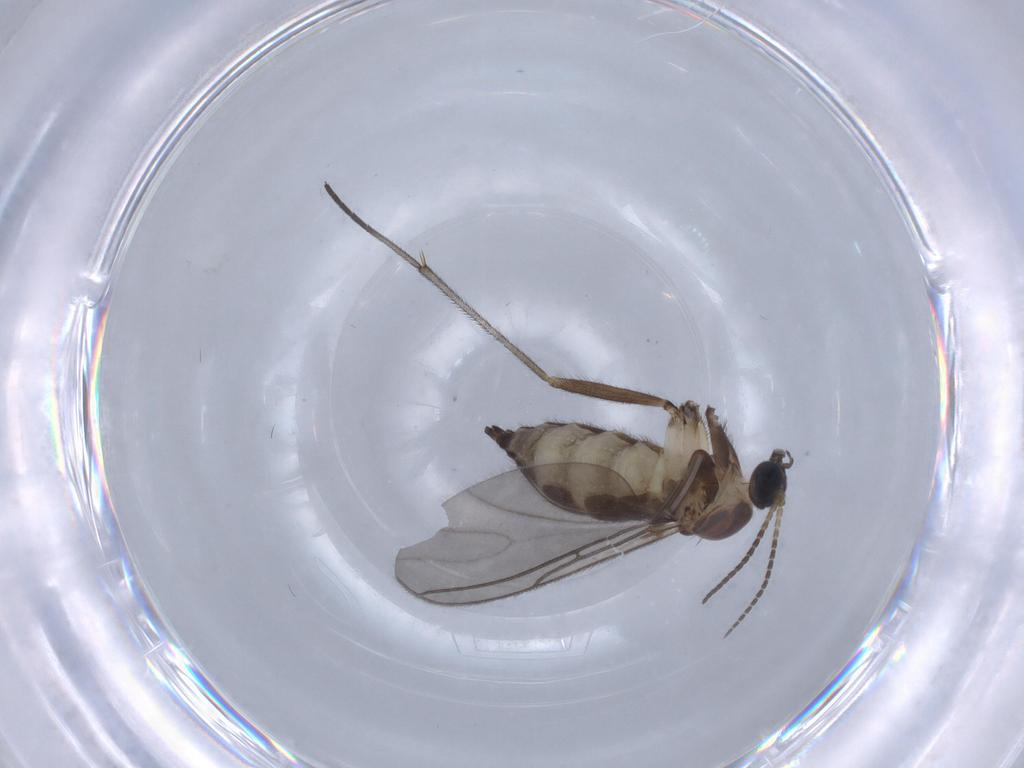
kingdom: Animalia
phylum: Arthropoda
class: Insecta
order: Diptera
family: Sciaridae
